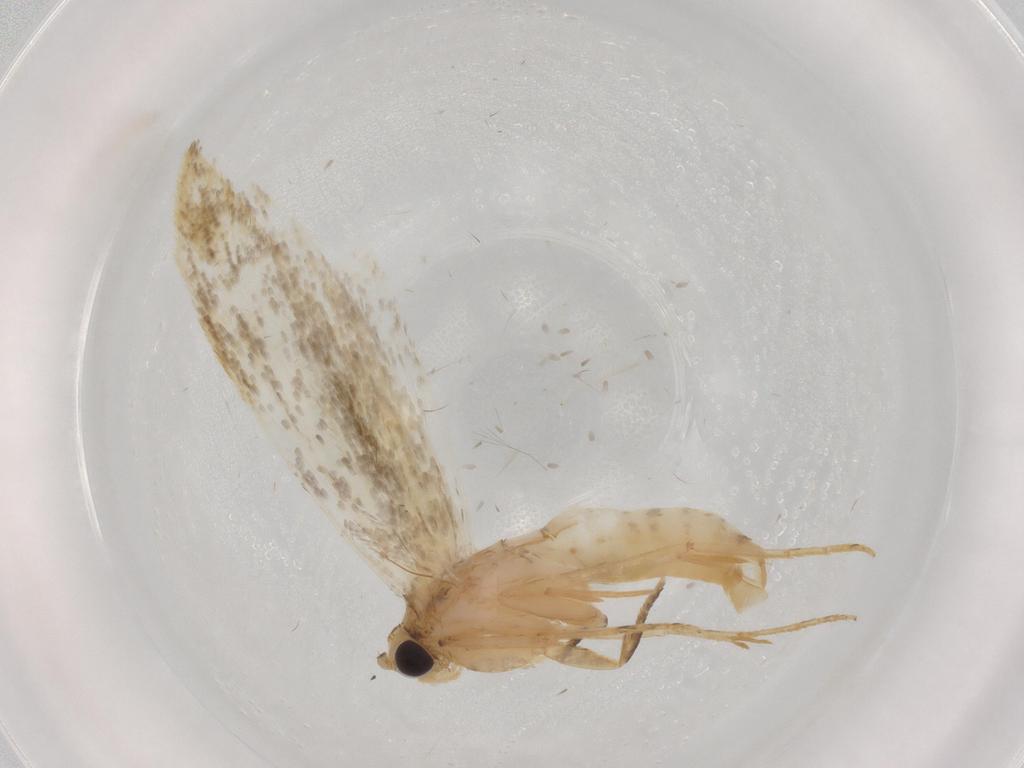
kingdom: Animalia
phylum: Arthropoda
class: Insecta
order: Lepidoptera
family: Tineidae
